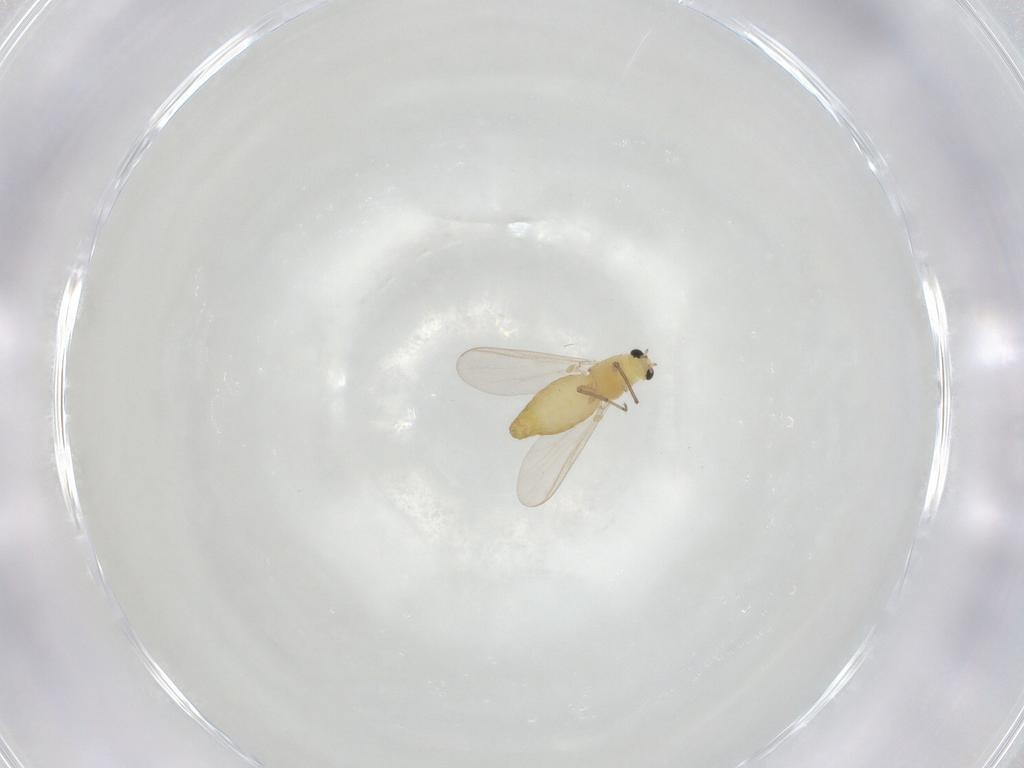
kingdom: Animalia
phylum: Arthropoda
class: Insecta
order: Diptera
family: Chironomidae
